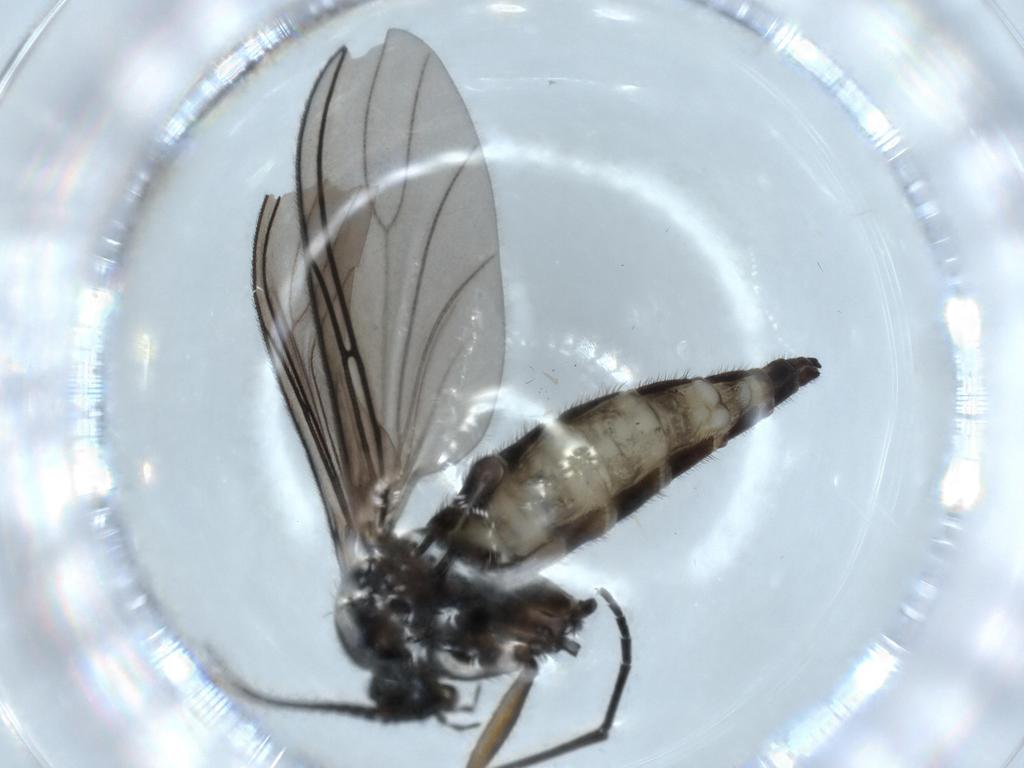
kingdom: Animalia
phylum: Arthropoda
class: Insecta
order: Diptera
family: Sciaridae
